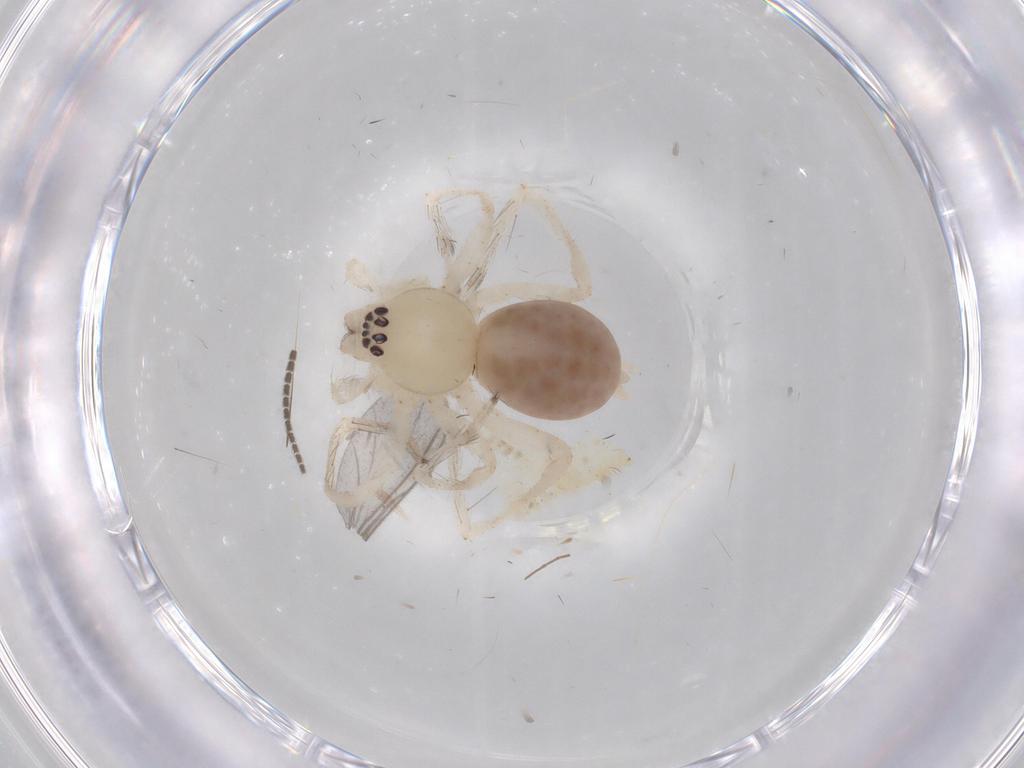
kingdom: Animalia
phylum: Arthropoda
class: Arachnida
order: Araneae
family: Anyphaenidae
